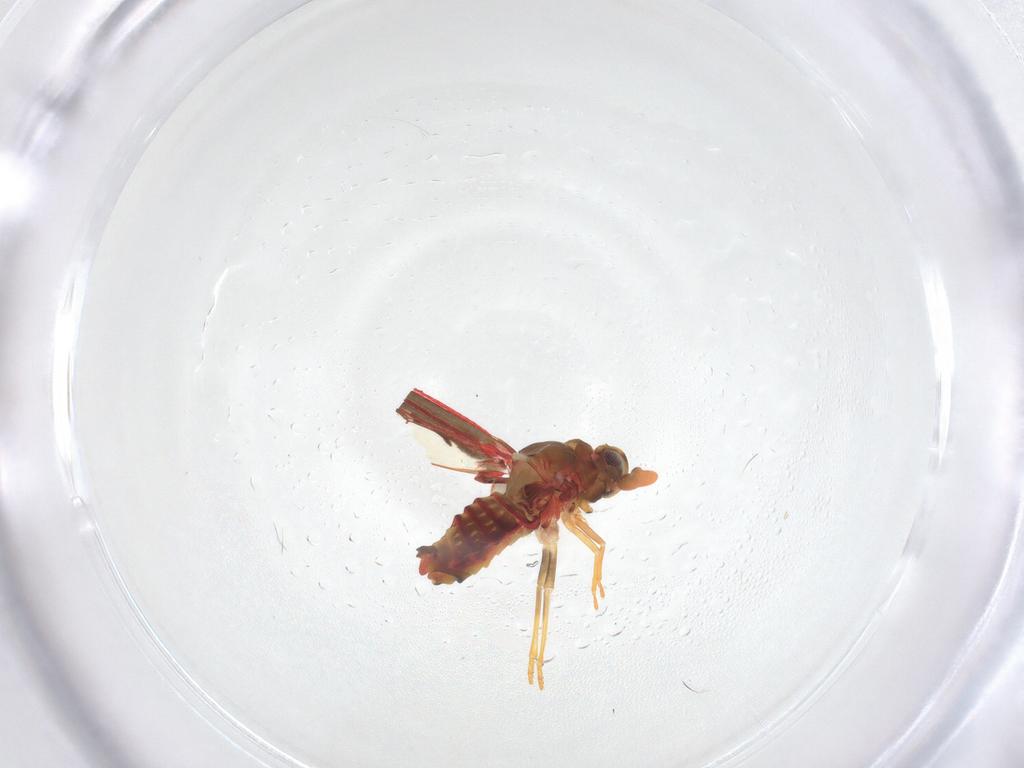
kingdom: Animalia
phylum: Arthropoda
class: Insecta
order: Hemiptera
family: Derbidae
